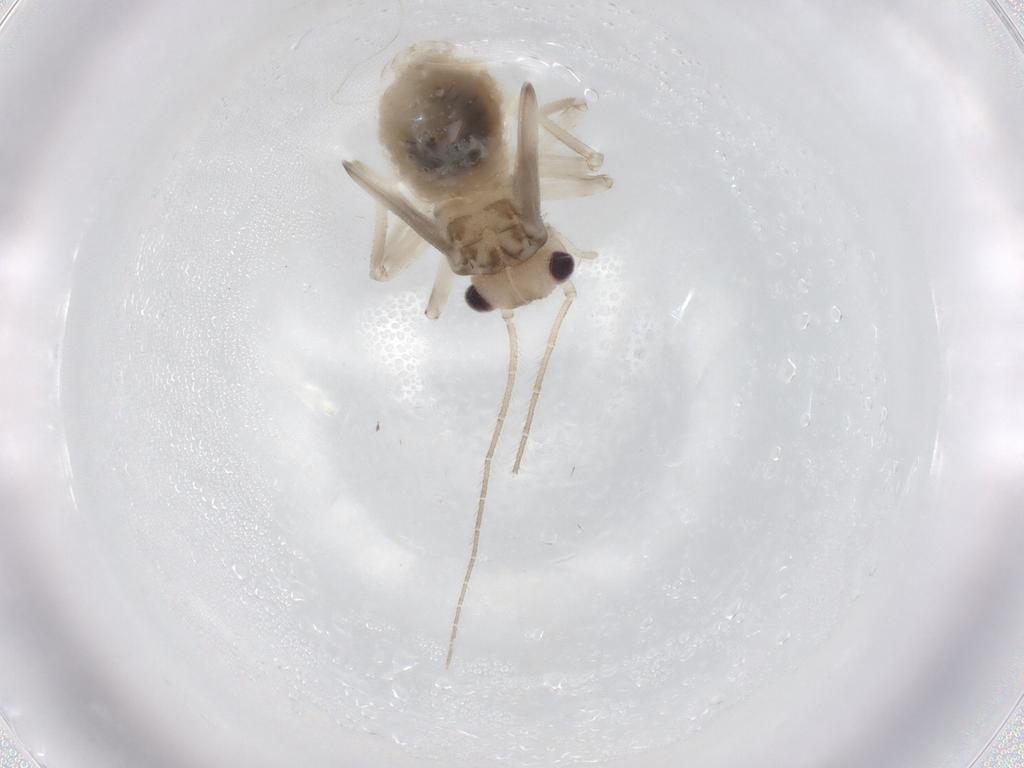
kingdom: Animalia
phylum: Arthropoda
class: Insecta
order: Psocodea
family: Amphipsocidae
